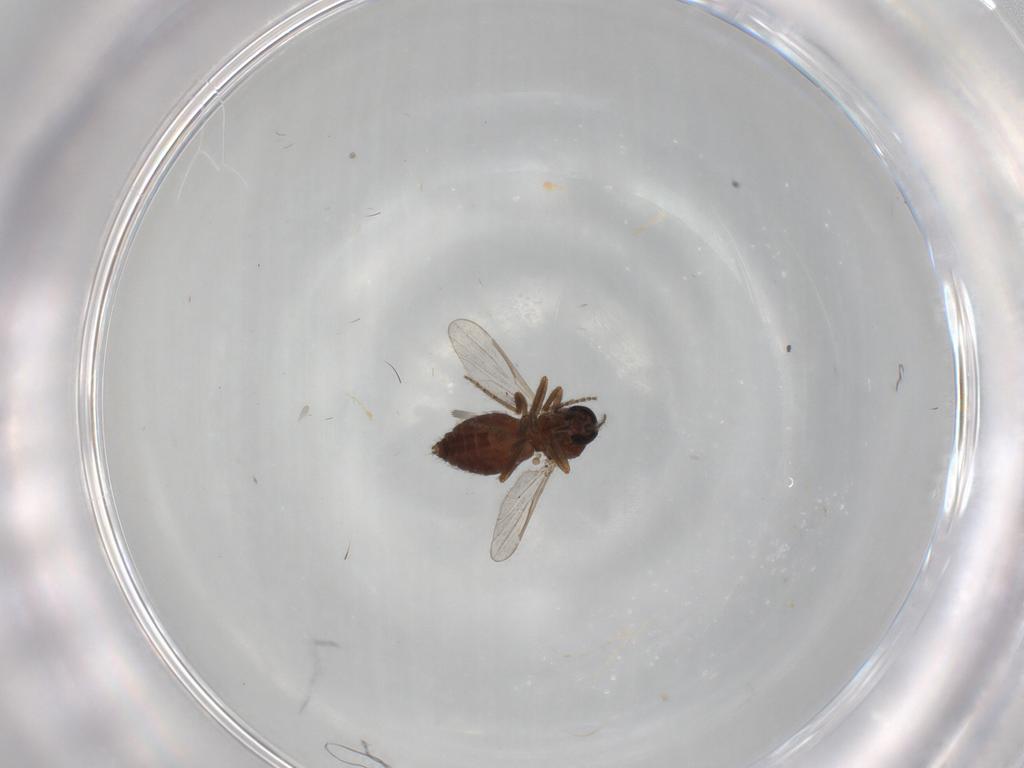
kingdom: Animalia
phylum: Arthropoda
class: Insecta
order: Diptera
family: Ceratopogonidae
